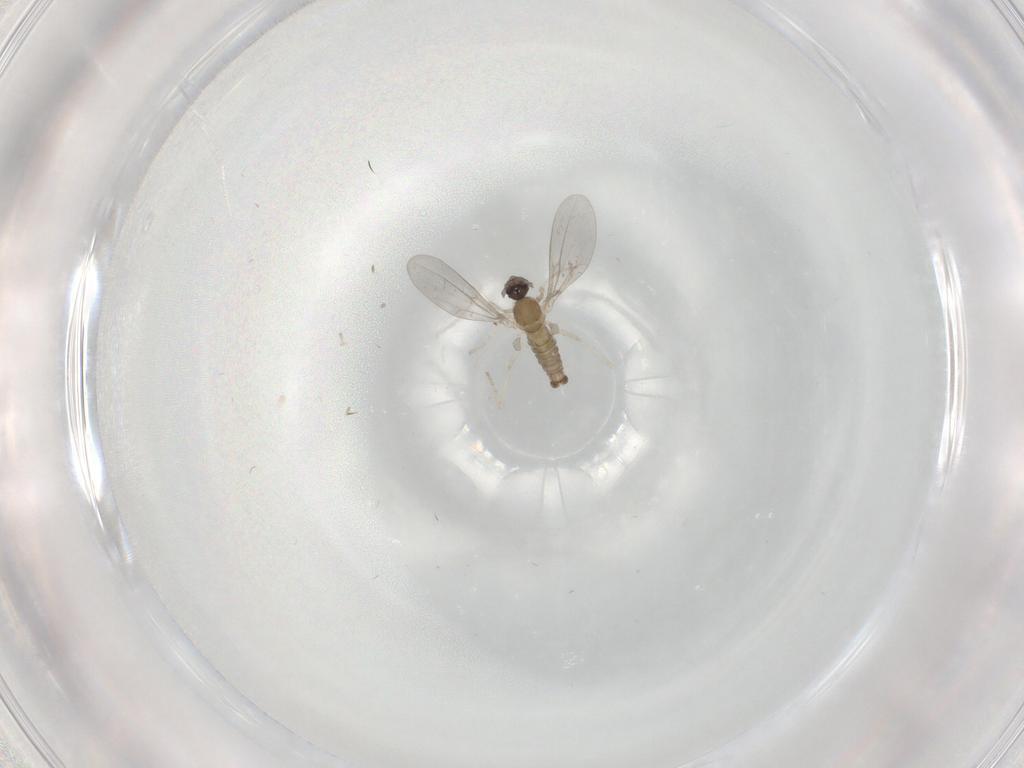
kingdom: Animalia
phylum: Arthropoda
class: Insecta
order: Diptera
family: Cecidomyiidae
